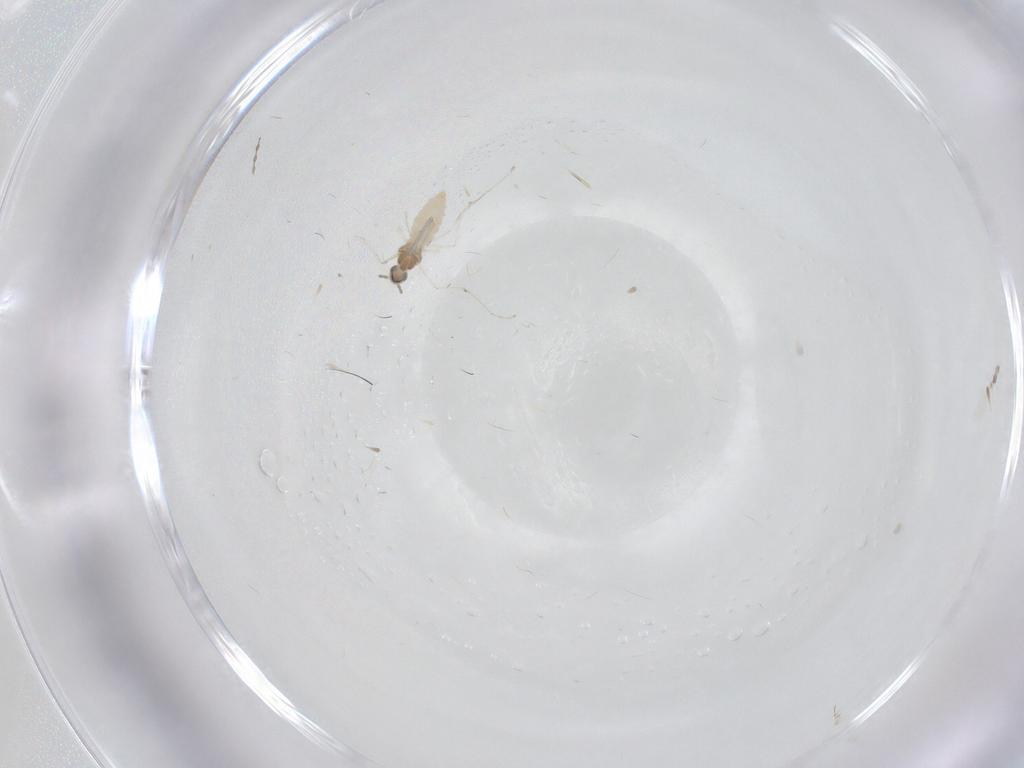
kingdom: Animalia
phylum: Arthropoda
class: Insecta
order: Diptera
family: Cecidomyiidae
